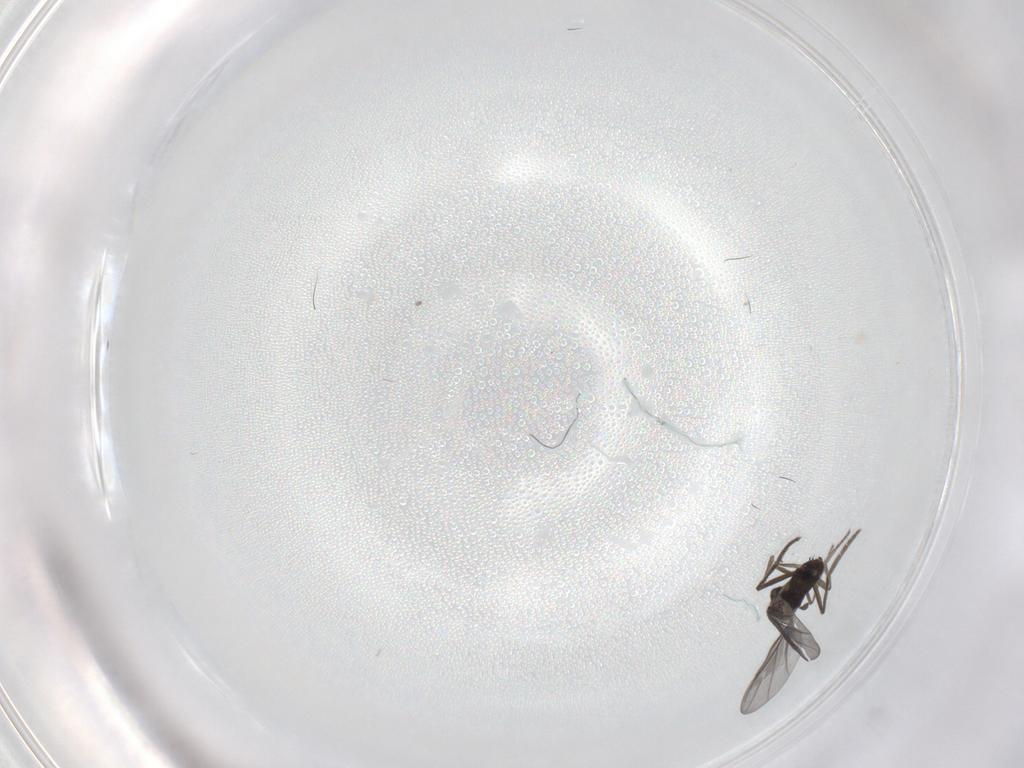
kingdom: Animalia
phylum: Arthropoda
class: Insecta
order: Diptera
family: Phoridae
